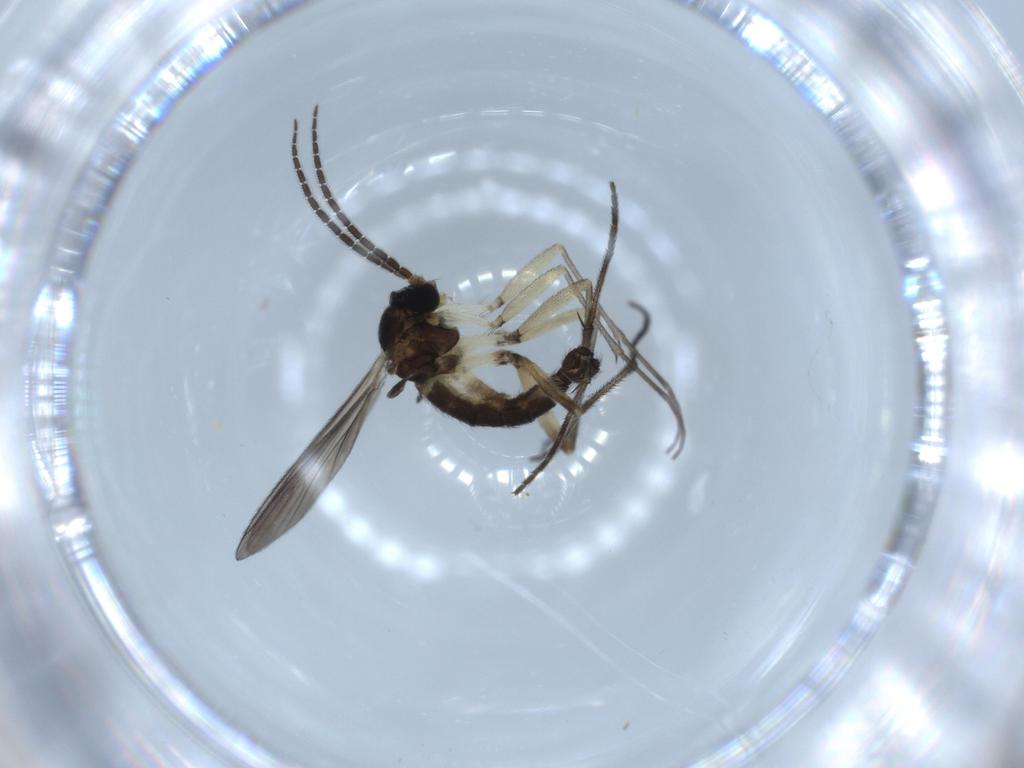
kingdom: Animalia
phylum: Arthropoda
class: Insecta
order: Diptera
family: Sciaridae
